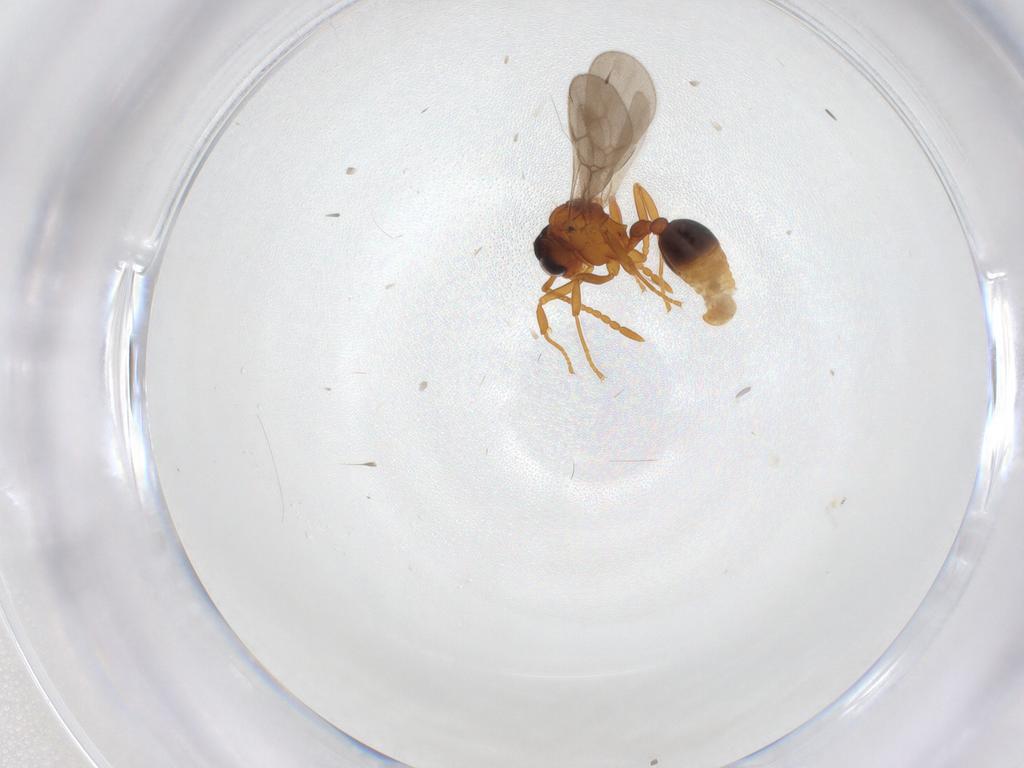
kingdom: Animalia
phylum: Arthropoda
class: Insecta
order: Hymenoptera
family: Formicidae
